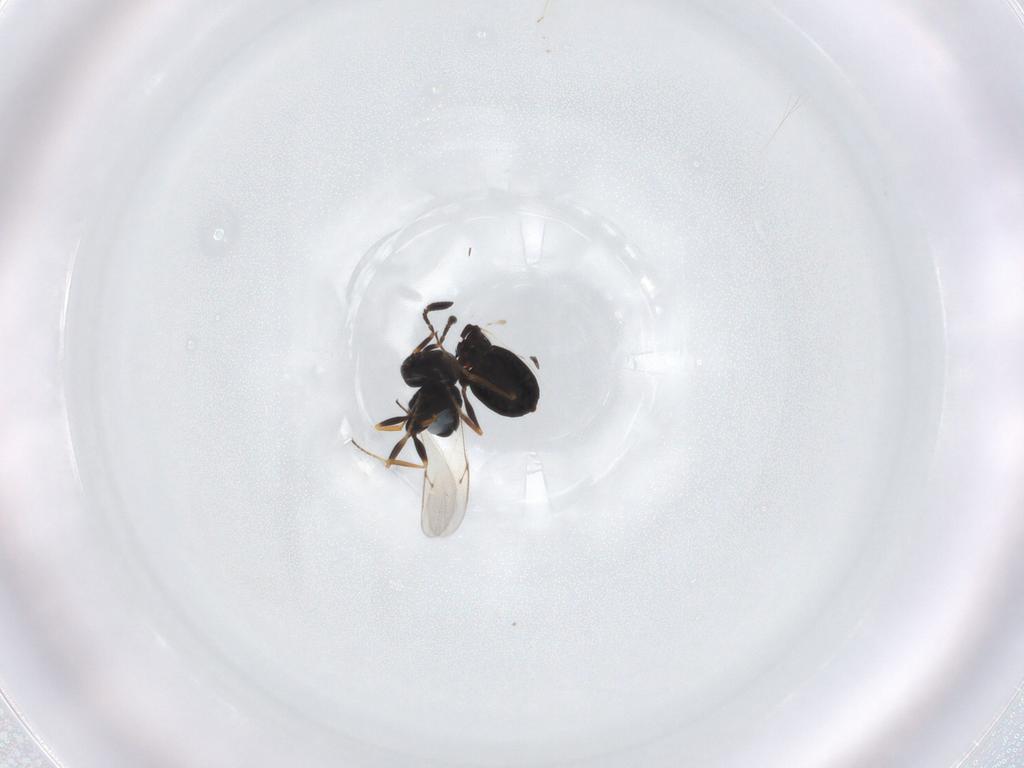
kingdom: Animalia
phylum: Arthropoda
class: Insecta
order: Hymenoptera
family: Scelionidae
